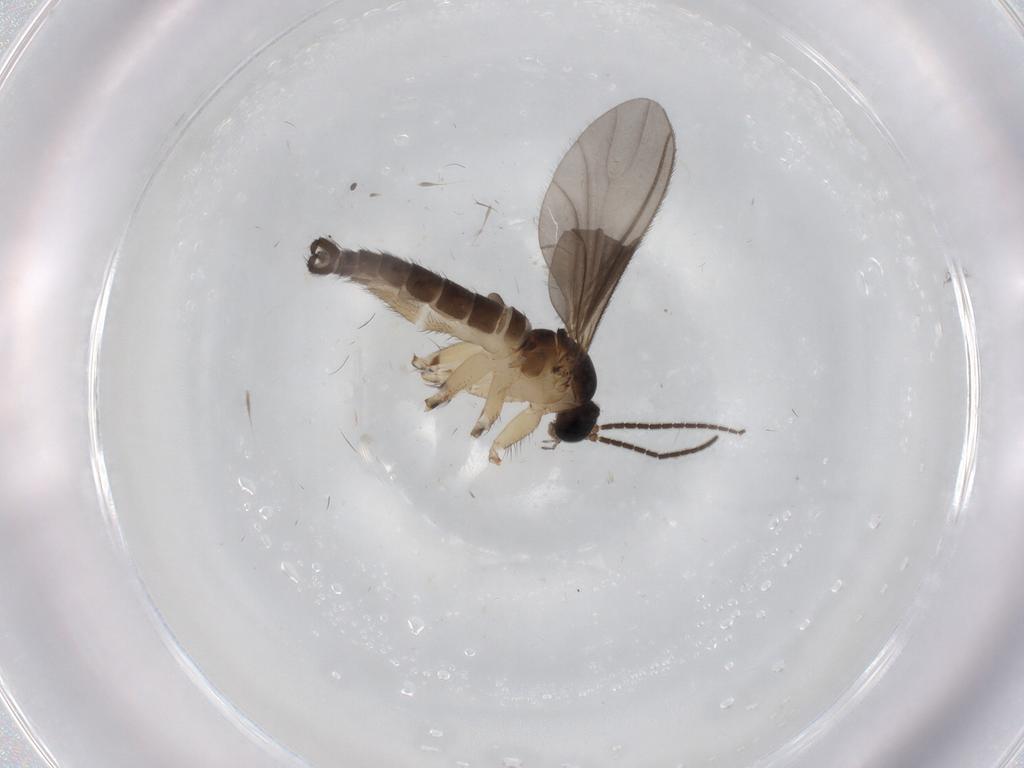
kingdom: Animalia
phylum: Arthropoda
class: Insecta
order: Diptera
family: Sciaridae
